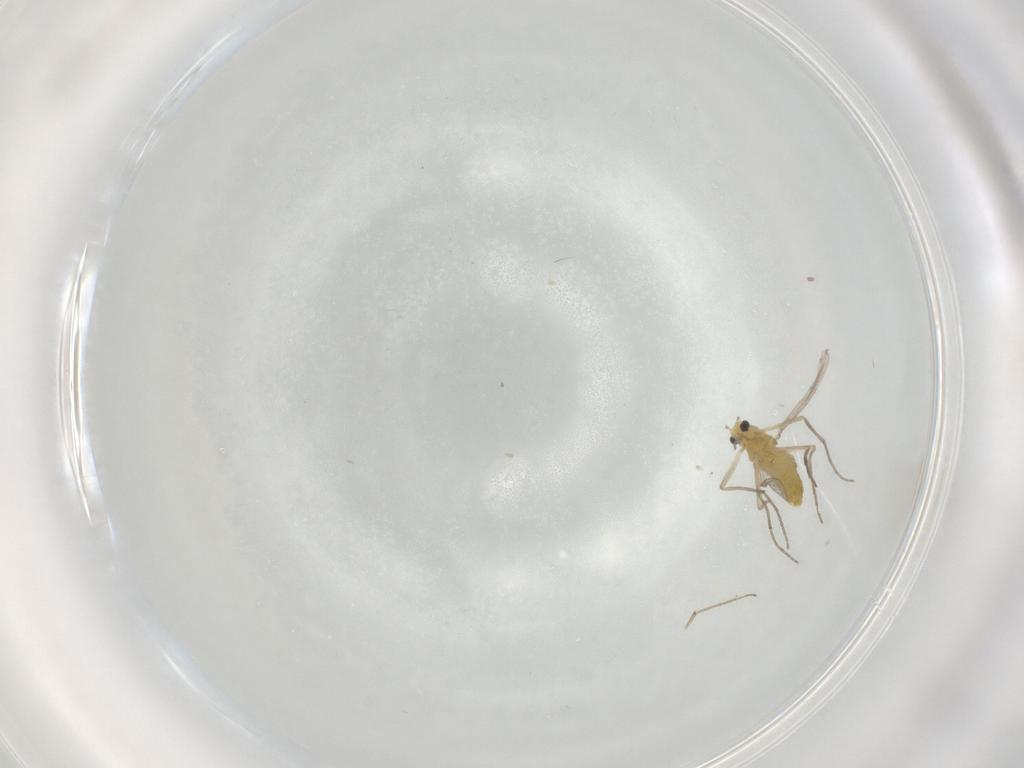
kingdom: Animalia
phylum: Arthropoda
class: Insecta
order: Diptera
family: Chironomidae
